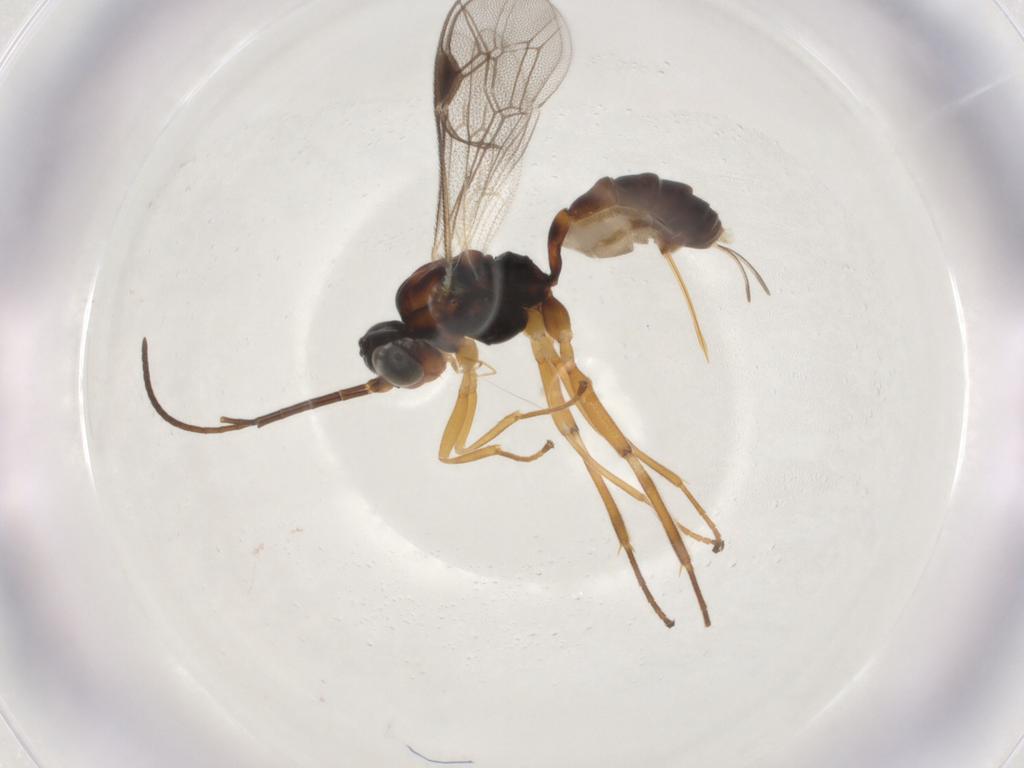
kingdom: Animalia
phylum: Arthropoda
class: Insecta
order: Hymenoptera
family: Ichneumonidae
